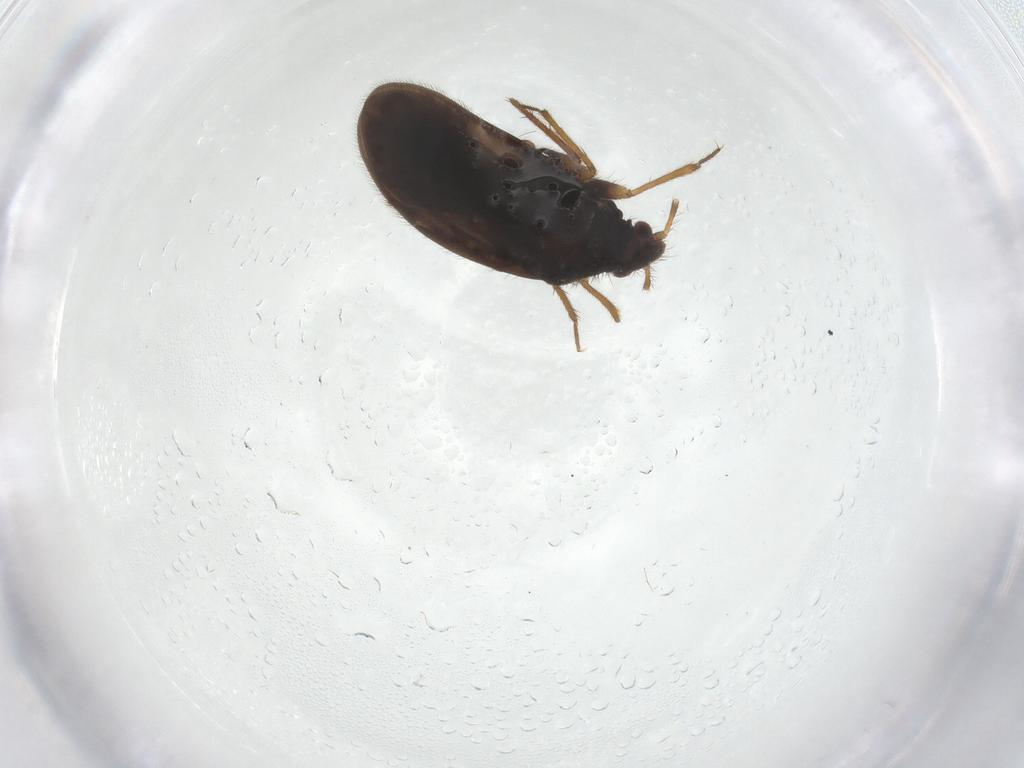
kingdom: Animalia
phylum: Arthropoda
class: Insecta
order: Hemiptera
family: Ceratocombidae
